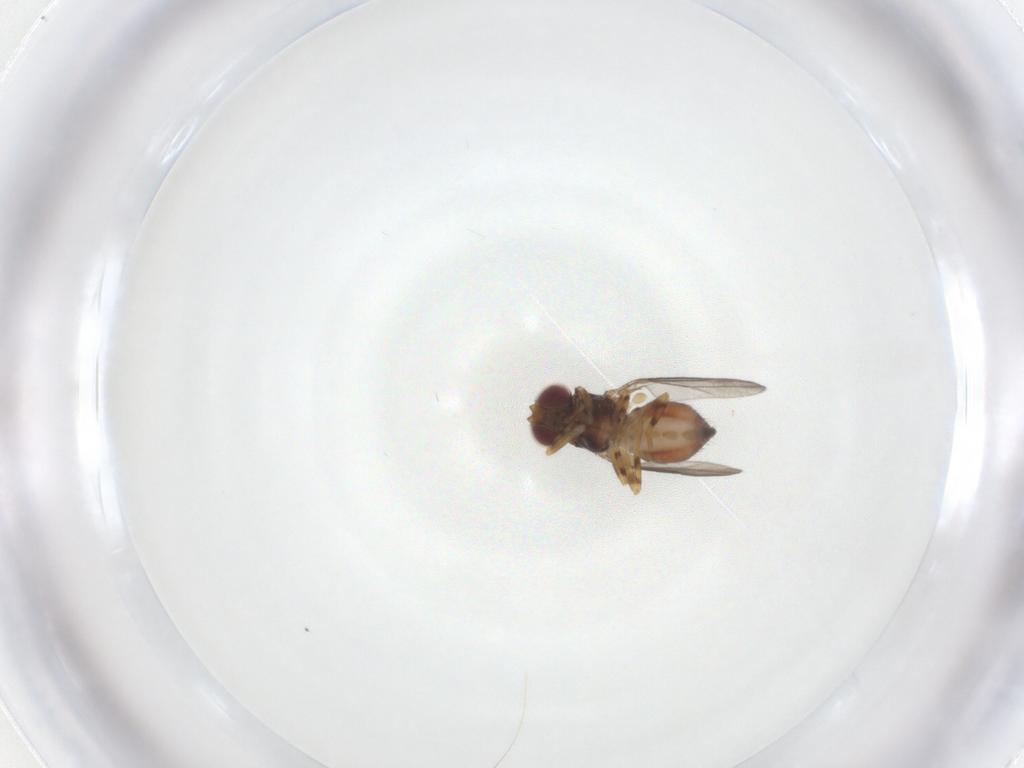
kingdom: Animalia
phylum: Arthropoda
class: Insecta
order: Diptera
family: Chloropidae
